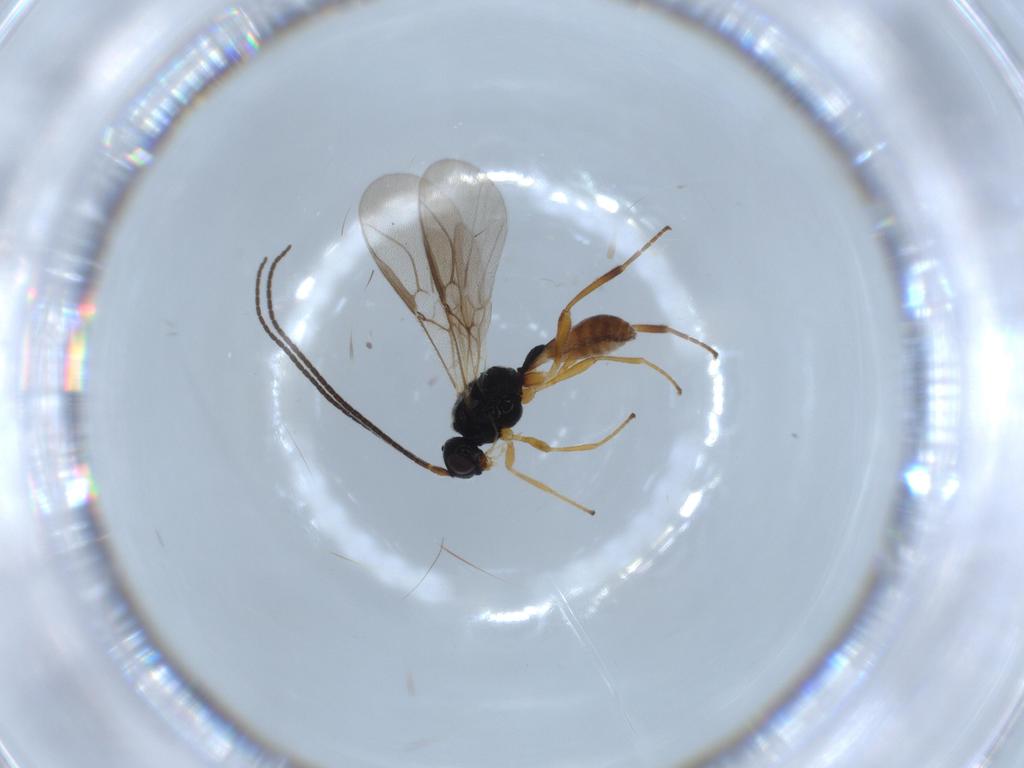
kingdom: Animalia
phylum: Arthropoda
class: Insecta
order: Hymenoptera
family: Braconidae
